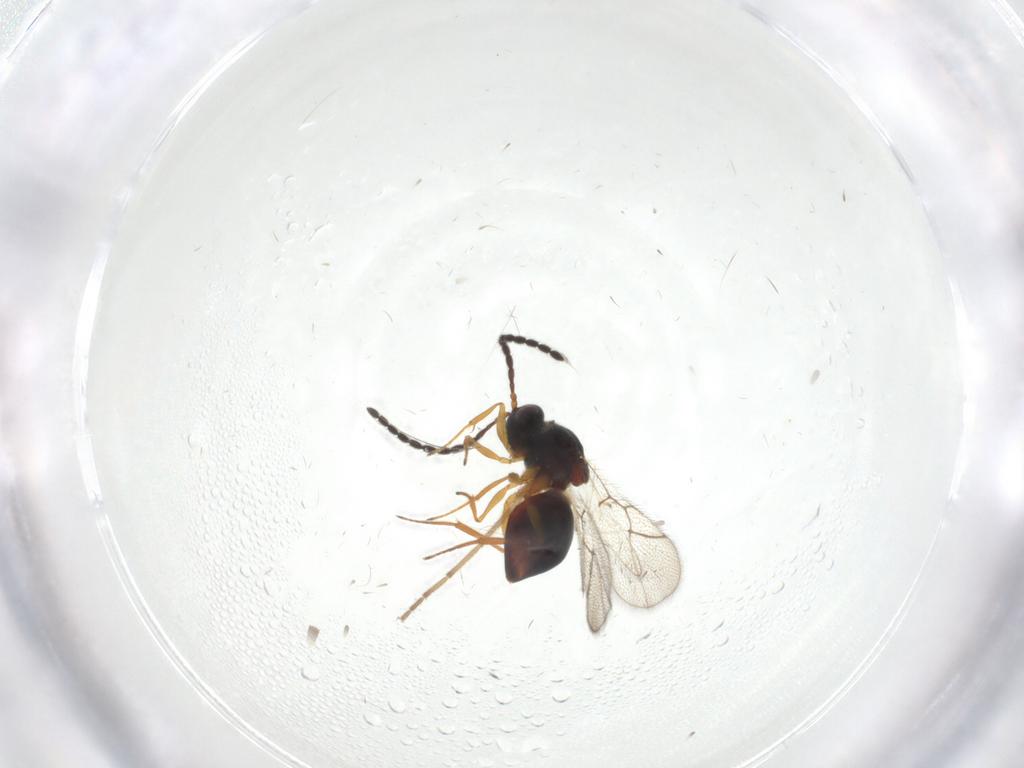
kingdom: Animalia
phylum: Arthropoda
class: Insecta
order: Hymenoptera
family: Figitidae
